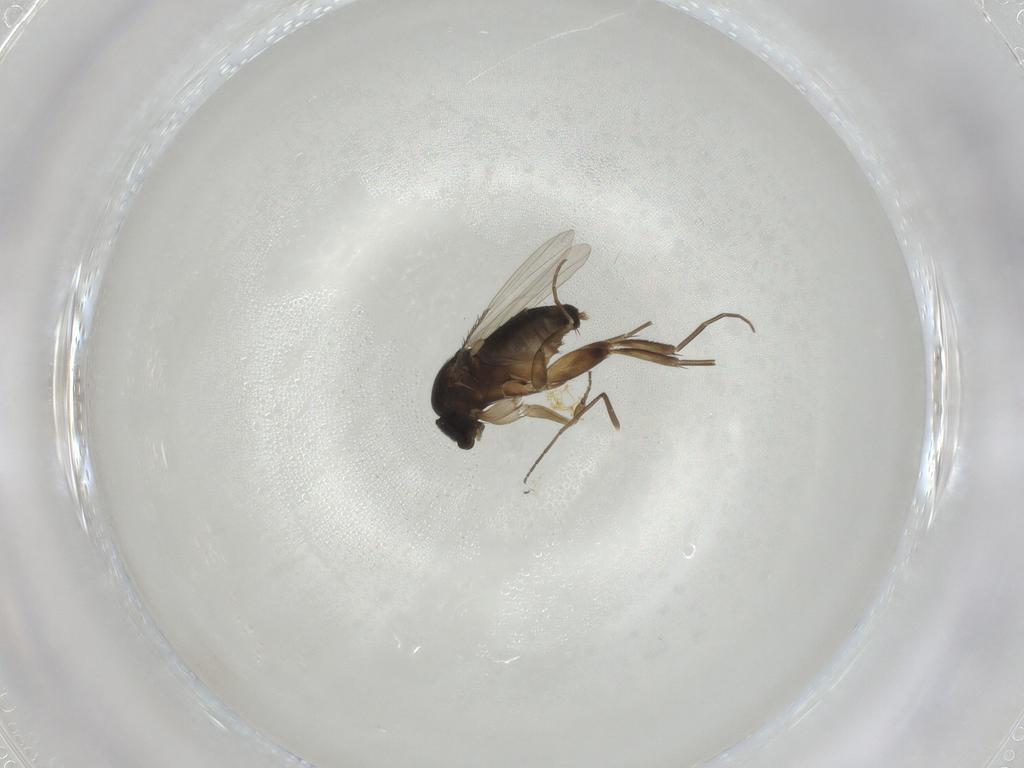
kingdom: Animalia
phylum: Arthropoda
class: Insecta
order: Diptera
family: Phoridae
